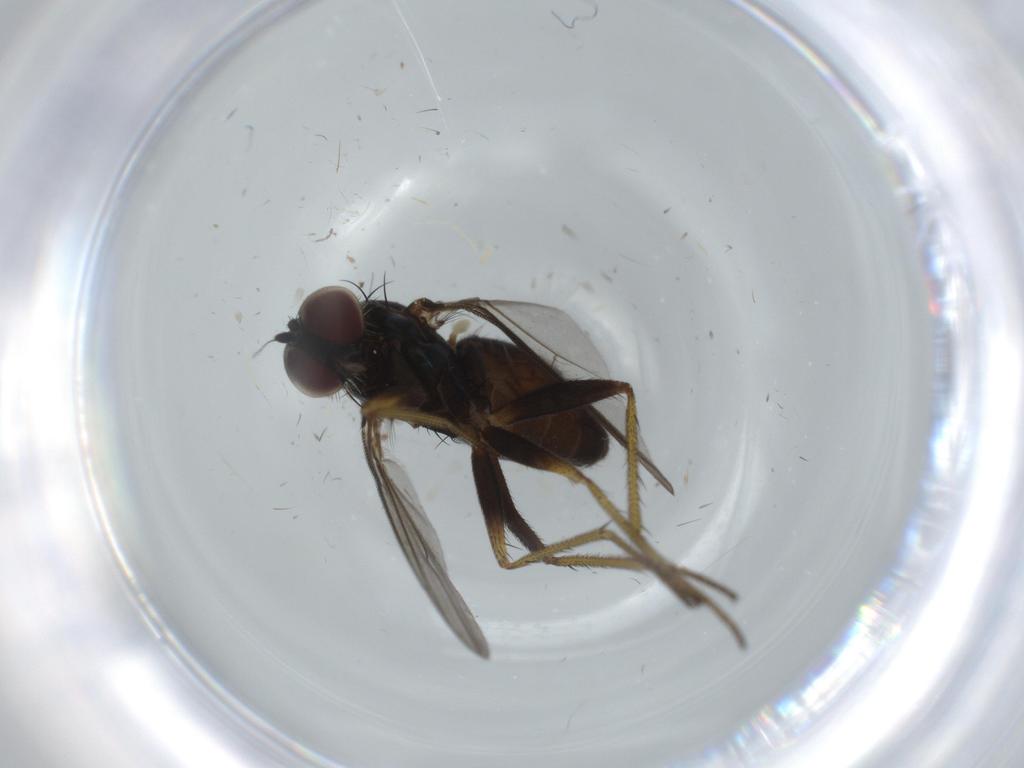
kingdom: Animalia
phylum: Arthropoda
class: Insecta
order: Diptera
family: Dolichopodidae
